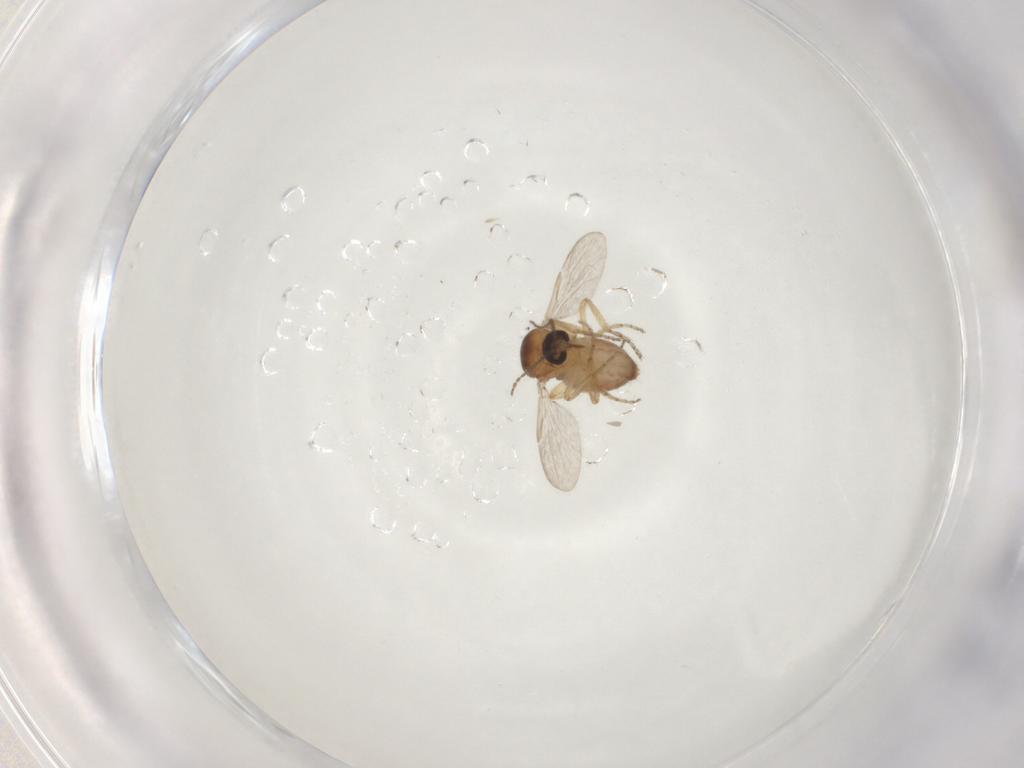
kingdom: Animalia
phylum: Arthropoda
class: Insecta
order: Diptera
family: Ceratopogonidae
